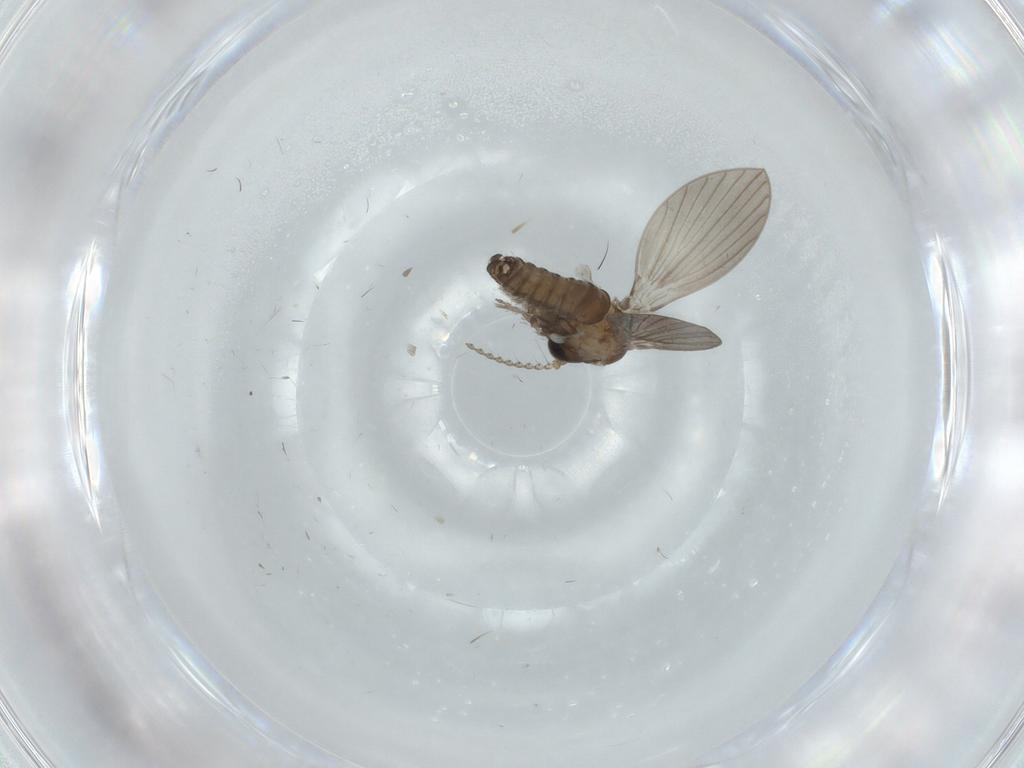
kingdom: Animalia
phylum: Arthropoda
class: Insecta
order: Diptera
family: Psychodidae
